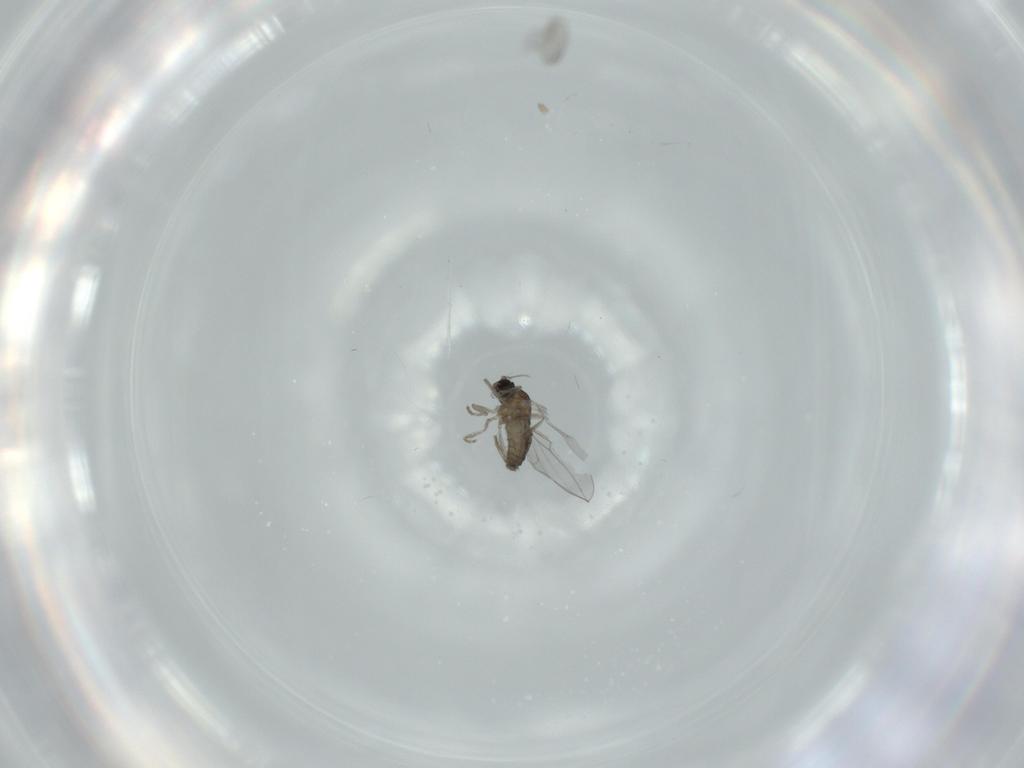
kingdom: Animalia
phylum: Arthropoda
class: Insecta
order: Diptera
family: Cecidomyiidae
